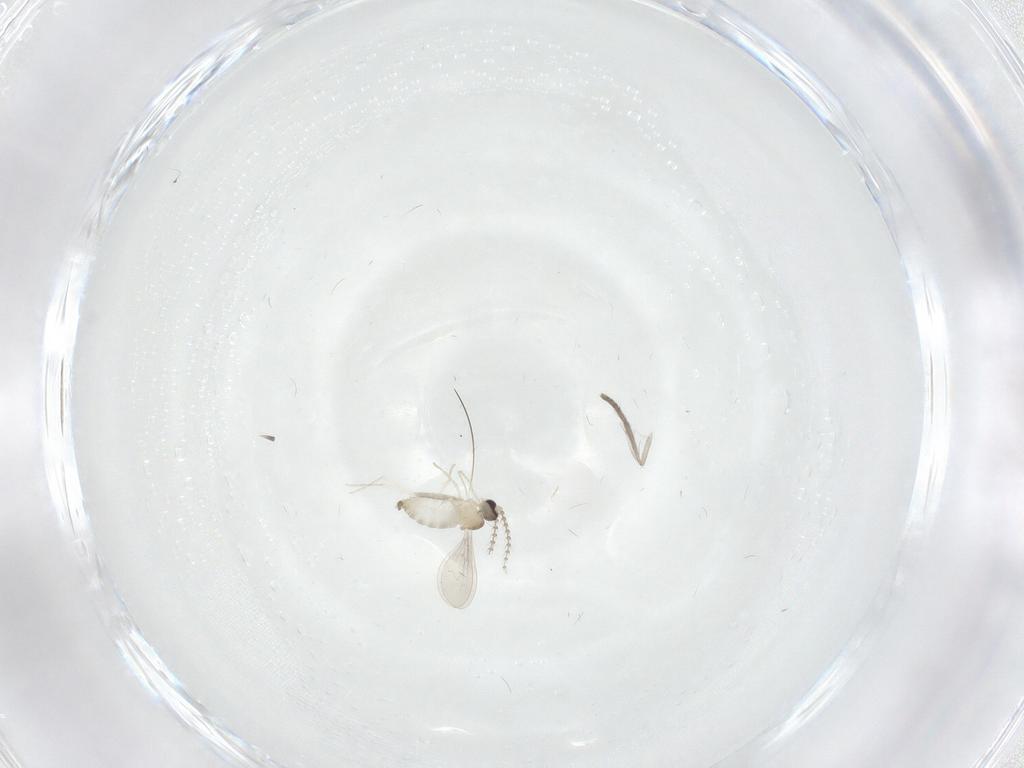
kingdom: Animalia
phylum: Arthropoda
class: Insecta
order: Diptera
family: Cecidomyiidae
